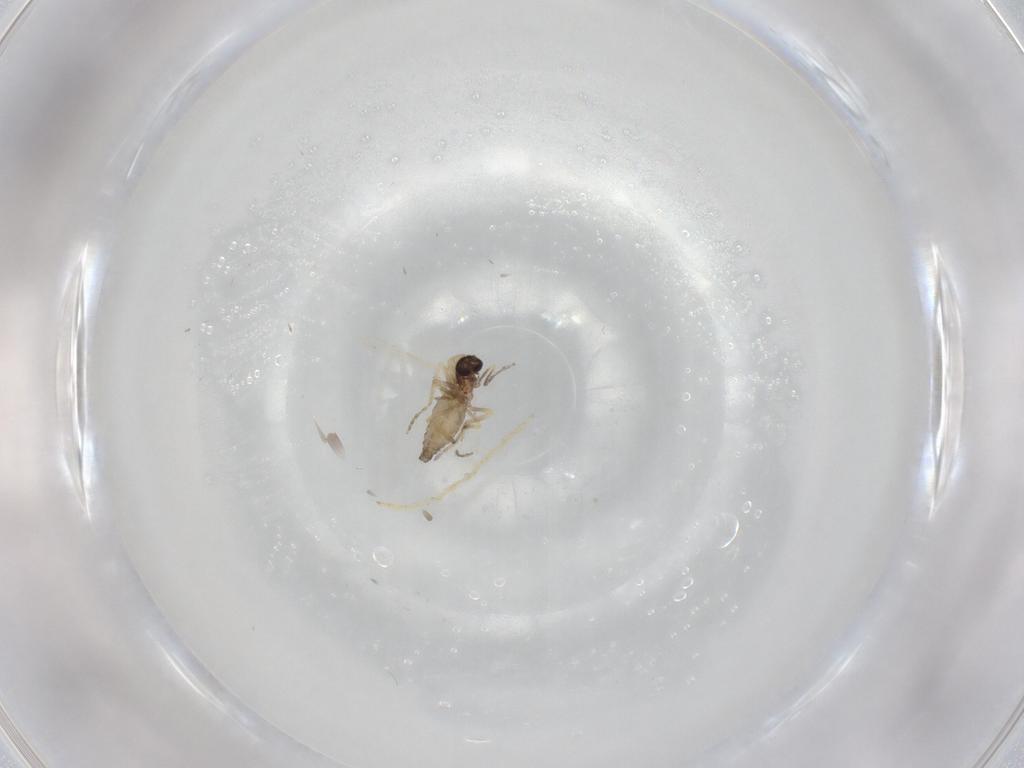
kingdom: Animalia
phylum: Arthropoda
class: Insecta
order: Diptera
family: Ceratopogonidae
